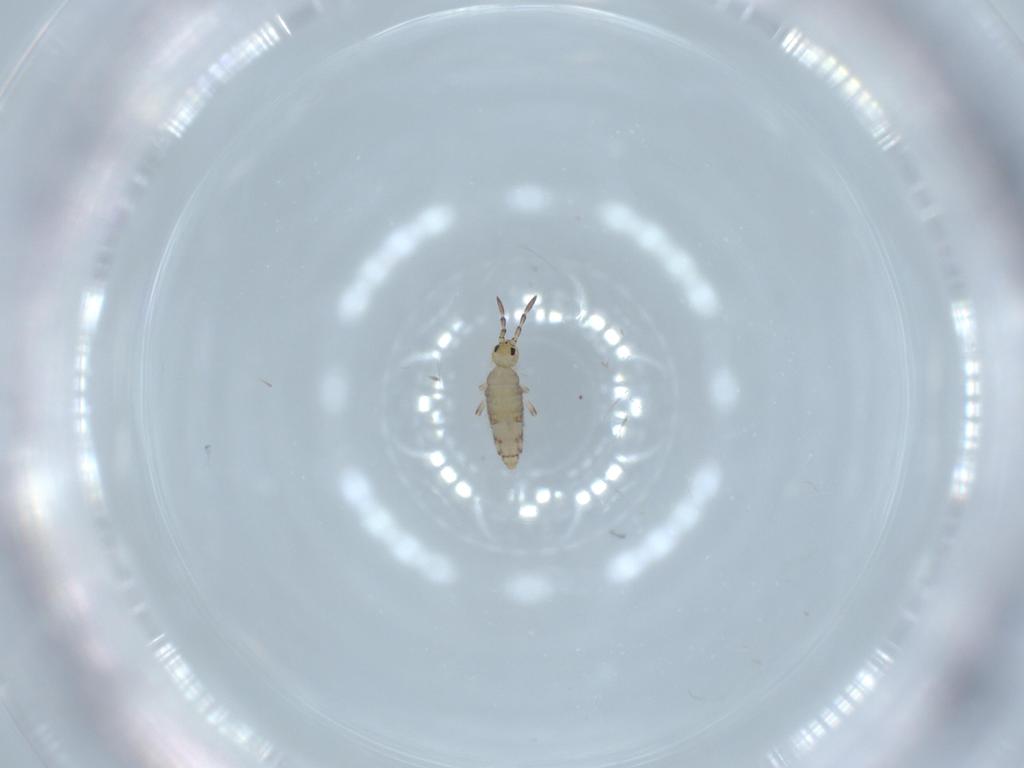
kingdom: Animalia
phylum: Arthropoda
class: Collembola
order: Entomobryomorpha
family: Entomobryidae
